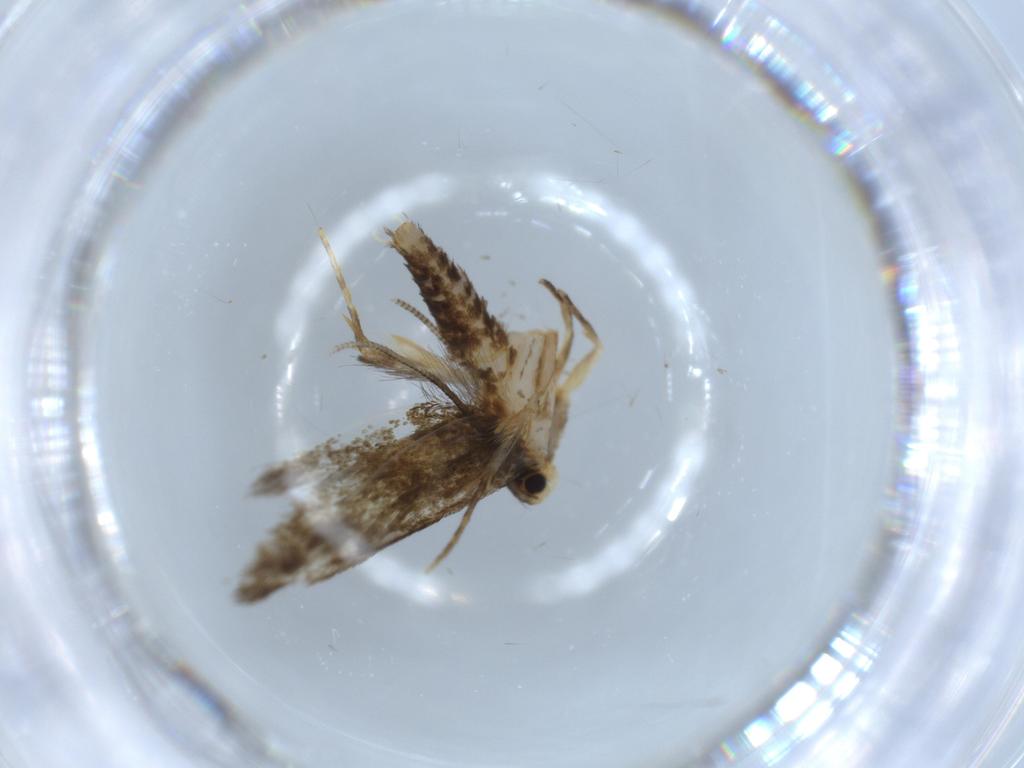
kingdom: Animalia
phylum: Arthropoda
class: Insecta
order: Lepidoptera
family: Tineidae
